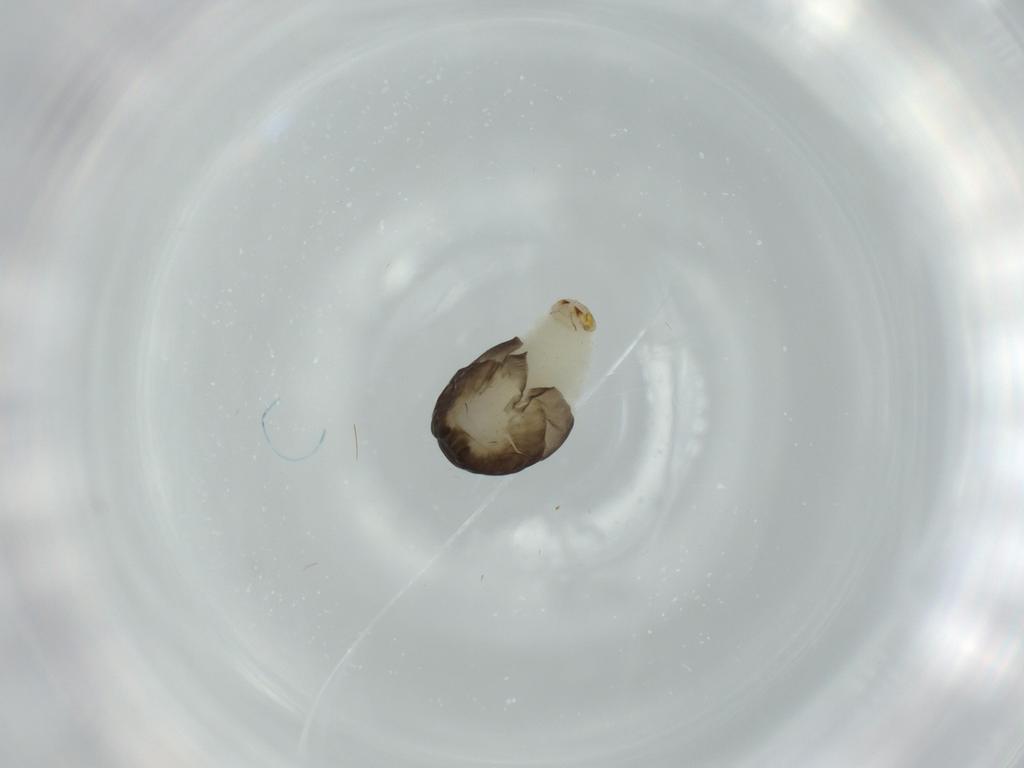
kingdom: Animalia
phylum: Arthropoda
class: Insecta
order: Hymenoptera
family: Dryinidae
